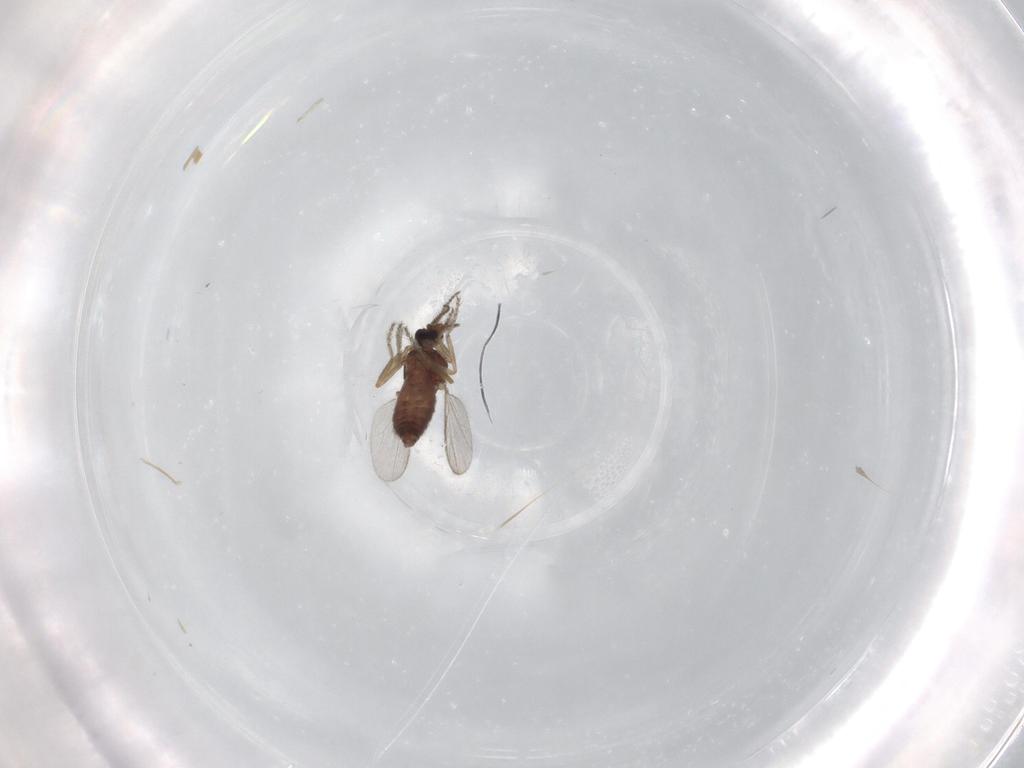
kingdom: Animalia
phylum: Arthropoda
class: Insecta
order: Diptera
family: Ceratopogonidae
